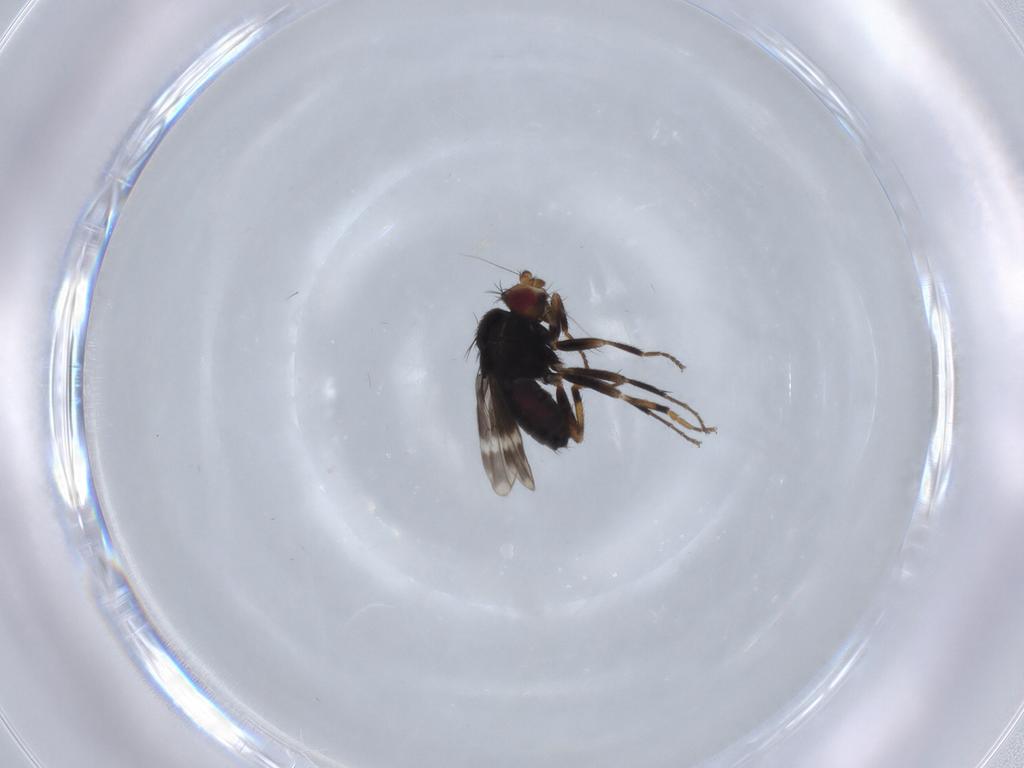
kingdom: Animalia
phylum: Arthropoda
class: Insecta
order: Diptera
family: Sphaeroceridae
